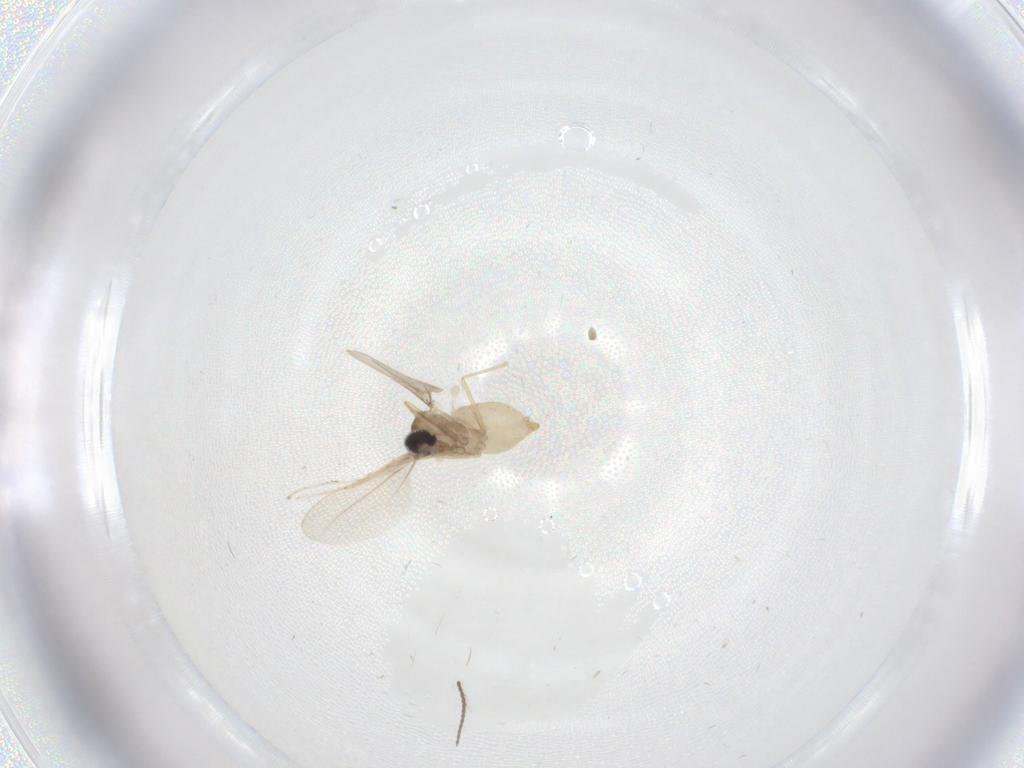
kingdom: Animalia
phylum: Arthropoda
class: Insecta
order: Diptera
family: Cecidomyiidae
